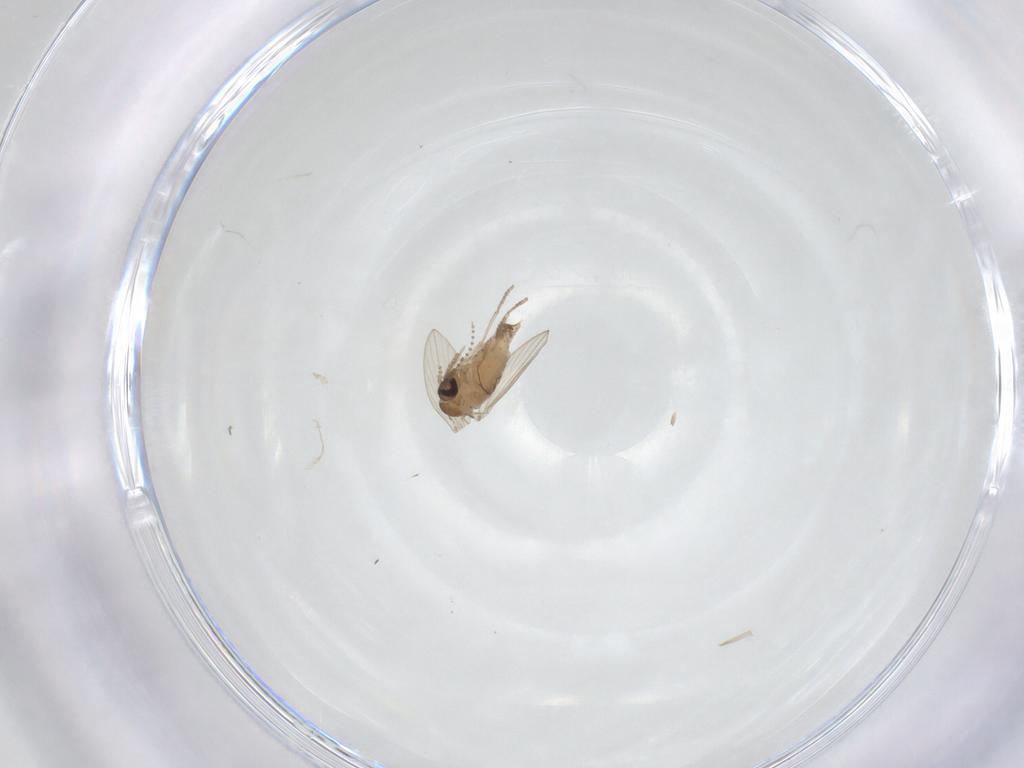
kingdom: Animalia
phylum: Arthropoda
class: Insecta
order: Diptera
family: Psychodidae
